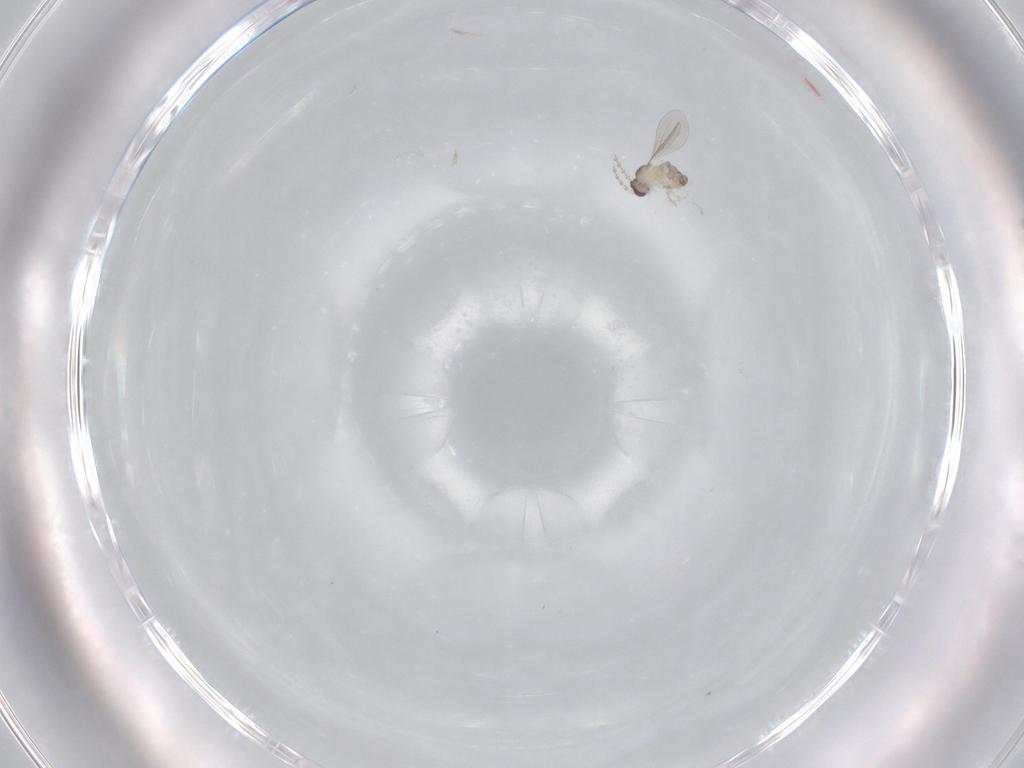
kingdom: Animalia
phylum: Arthropoda
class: Insecta
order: Diptera
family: Cecidomyiidae
